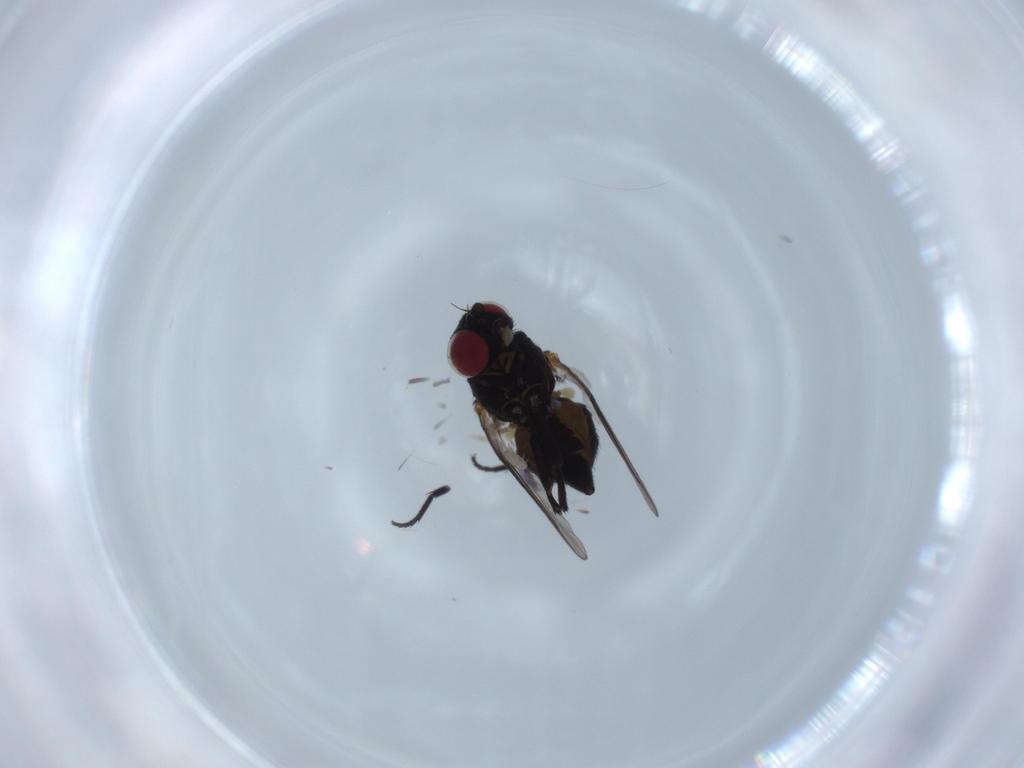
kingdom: Animalia
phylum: Arthropoda
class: Insecta
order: Diptera
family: Agromyzidae
